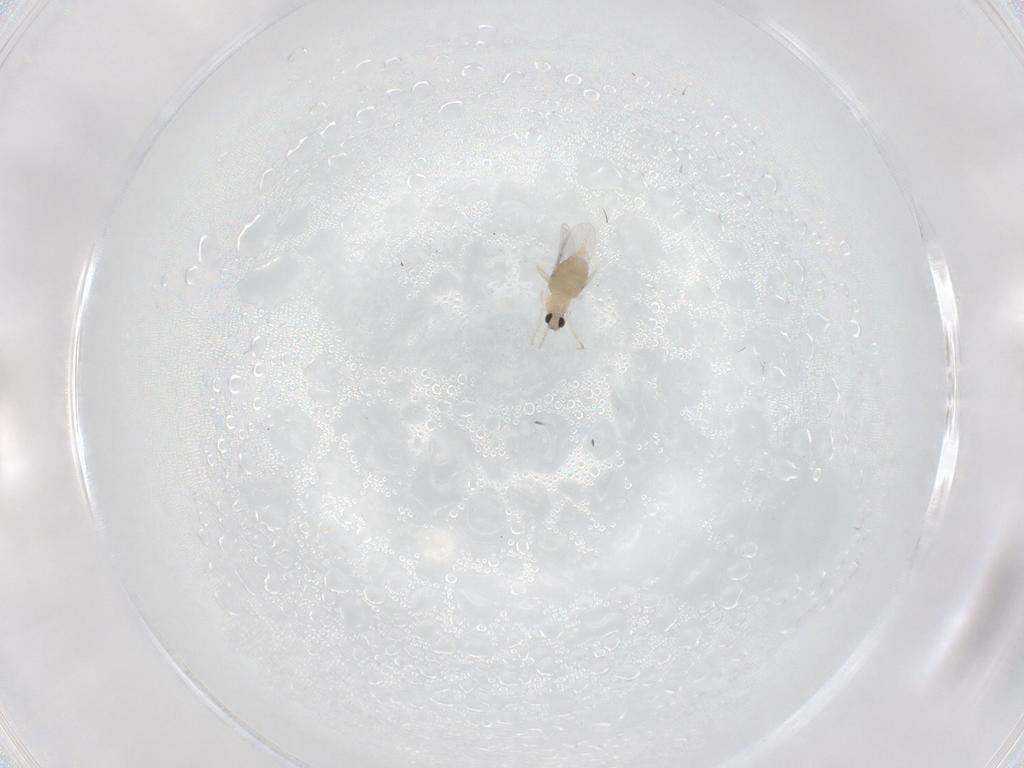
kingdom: Animalia
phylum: Arthropoda
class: Insecta
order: Diptera
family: Cecidomyiidae
